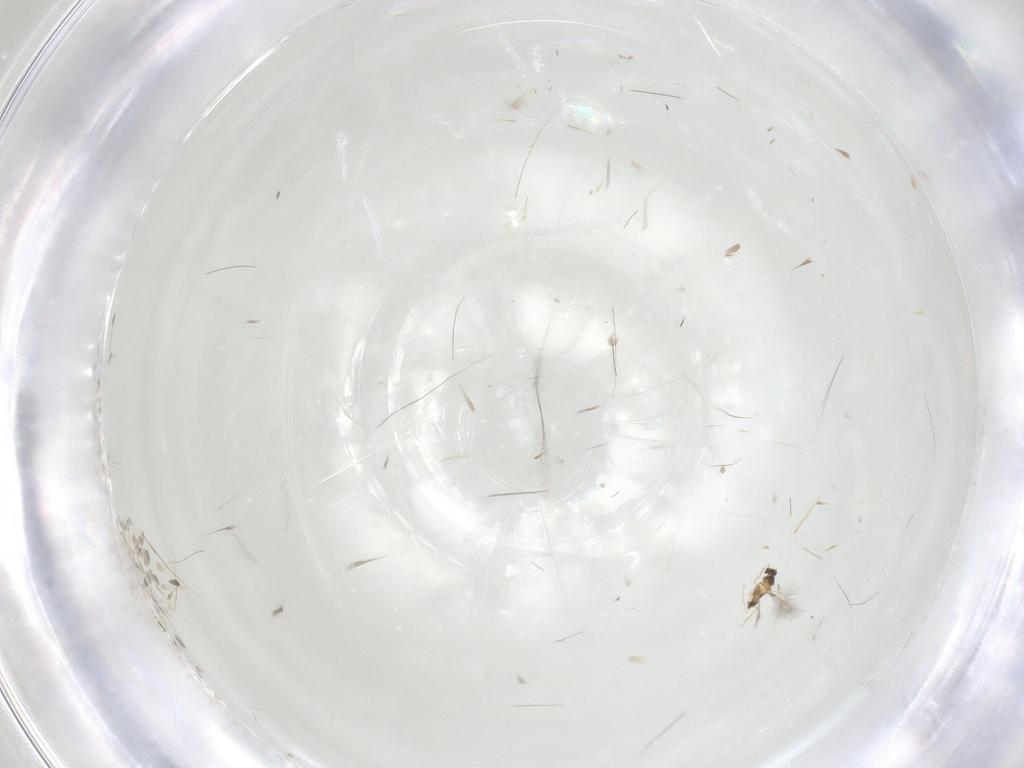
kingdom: Animalia
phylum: Arthropoda
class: Insecta
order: Hymenoptera
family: Mymaridae
